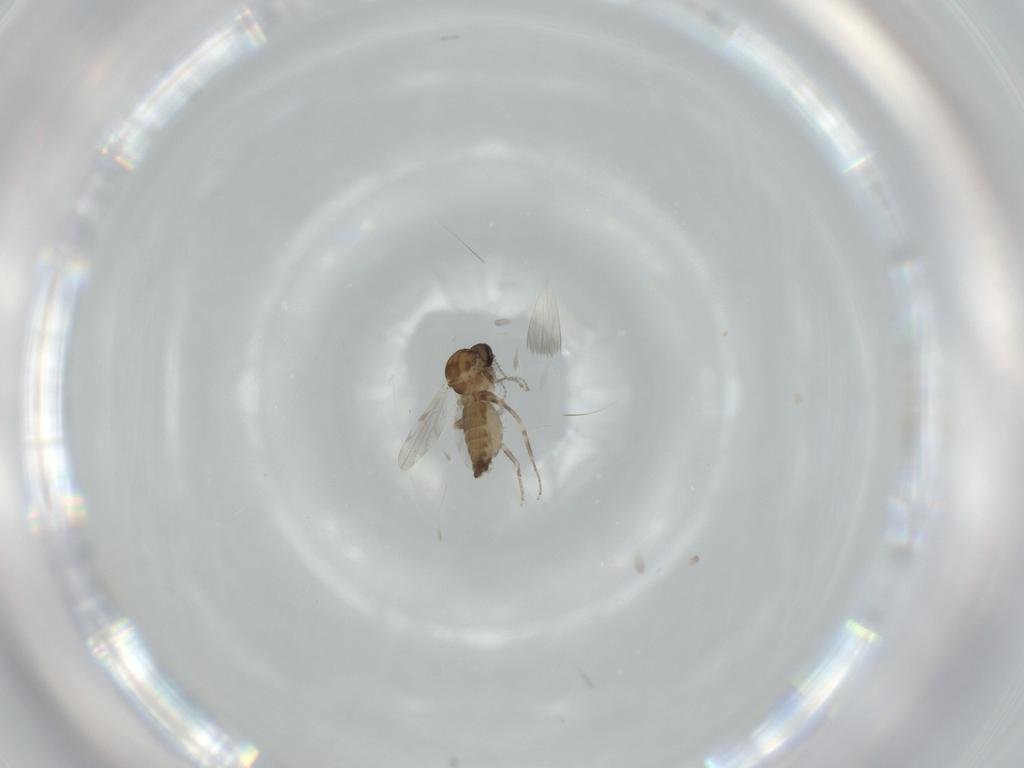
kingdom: Animalia
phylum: Arthropoda
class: Insecta
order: Diptera
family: Ceratopogonidae
